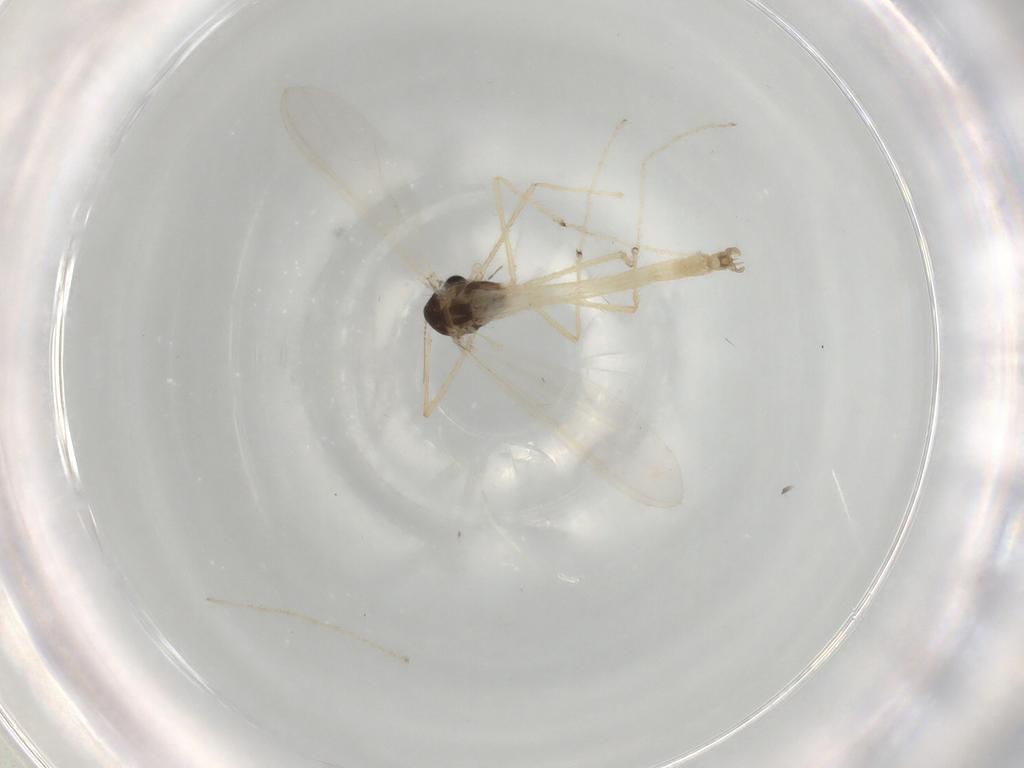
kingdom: Animalia
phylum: Arthropoda
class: Insecta
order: Diptera
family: Chironomidae
